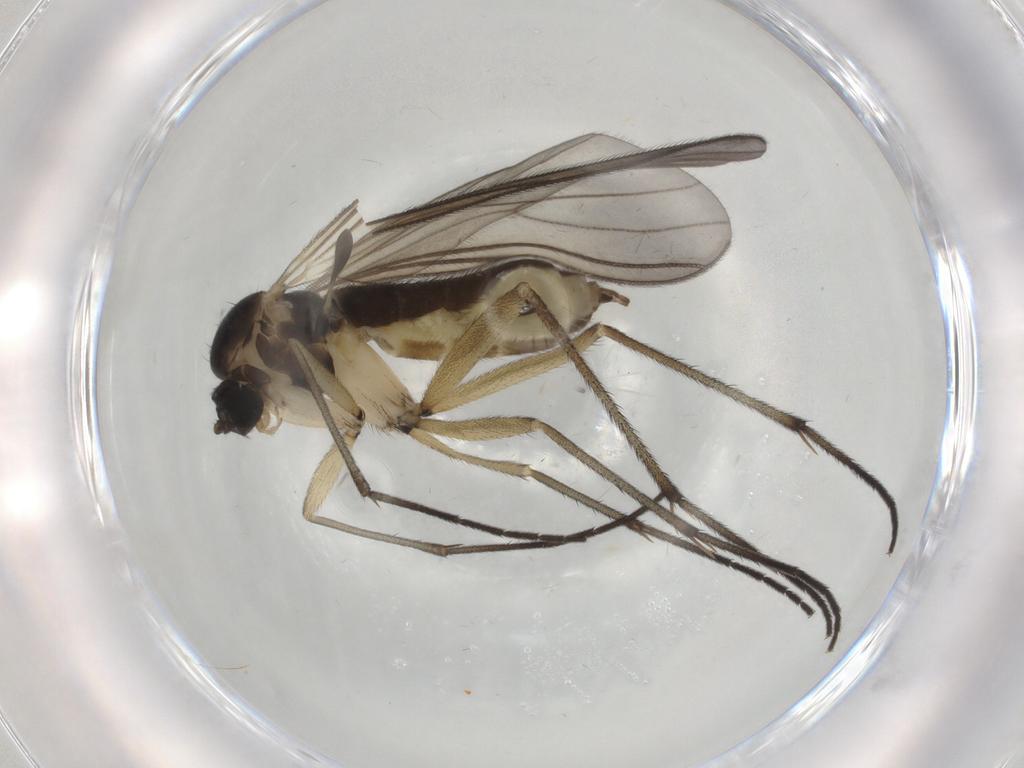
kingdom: Animalia
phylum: Arthropoda
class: Insecta
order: Diptera
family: Sciaridae
